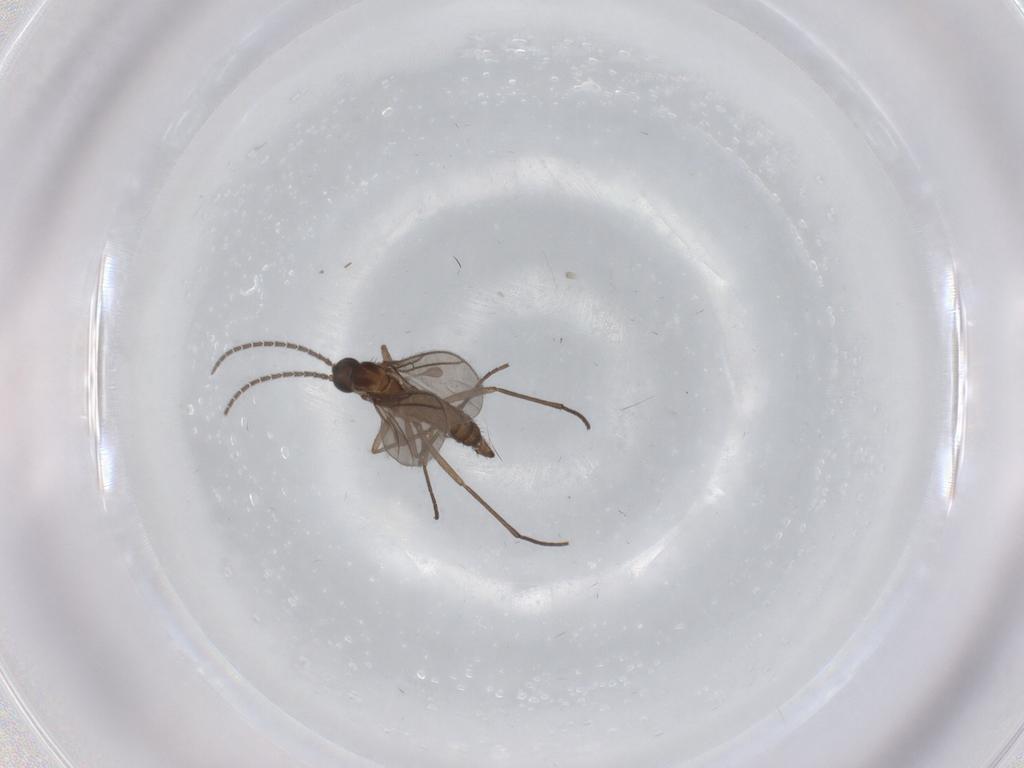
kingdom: Animalia
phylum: Arthropoda
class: Insecta
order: Diptera
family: Sciaridae
